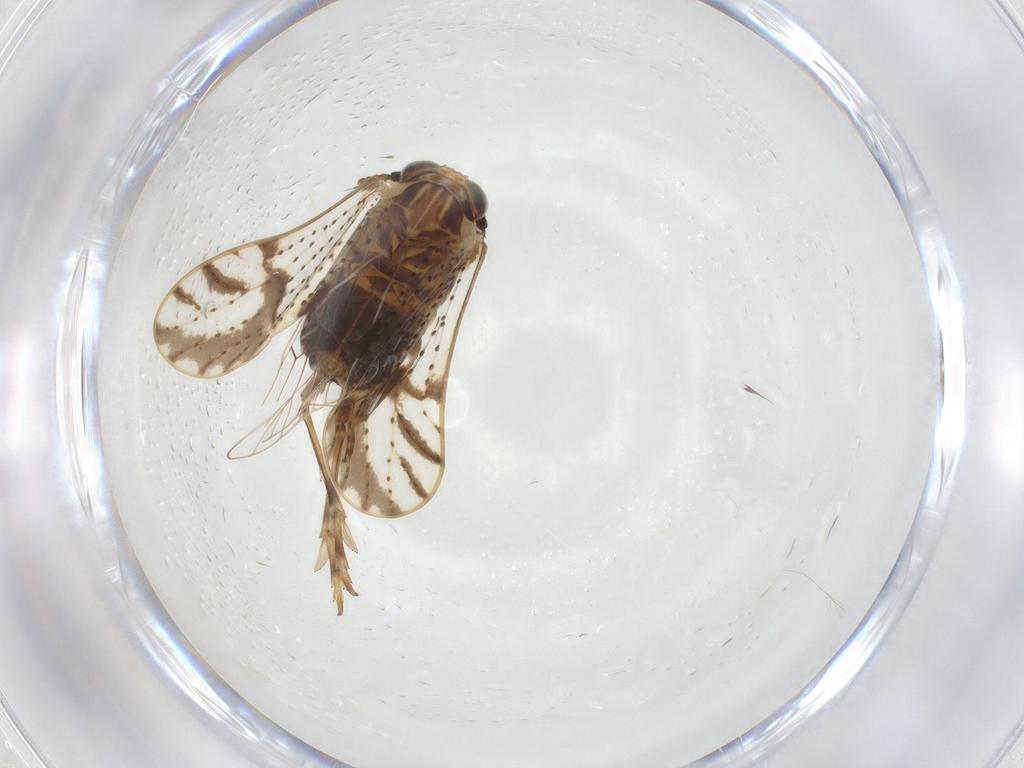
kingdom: Animalia
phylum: Arthropoda
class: Insecta
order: Hemiptera
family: Delphacidae
